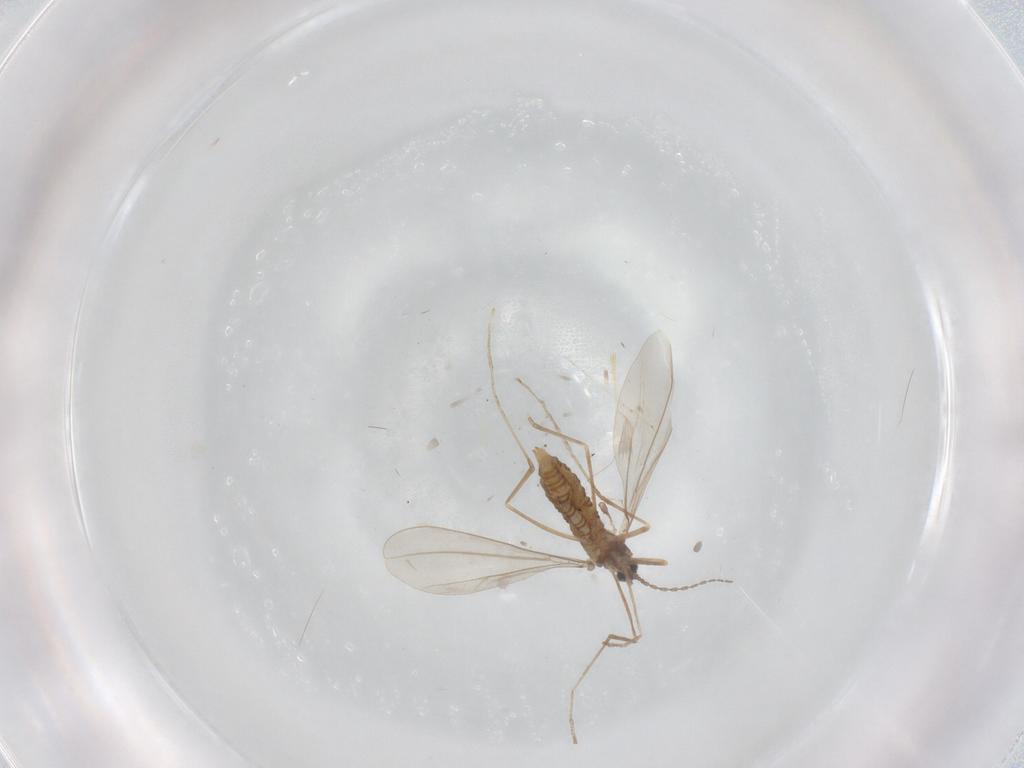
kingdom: Animalia
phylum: Arthropoda
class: Insecta
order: Diptera
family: Cecidomyiidae
